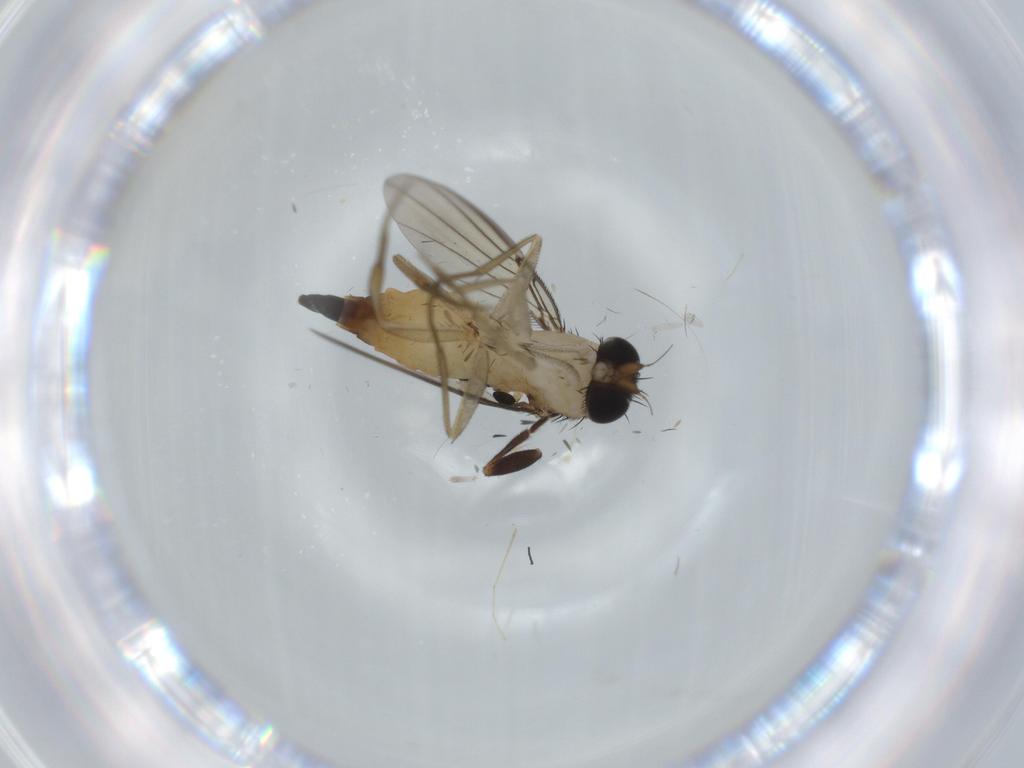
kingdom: Animalia
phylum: Arthropoda
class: Insecta
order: Diptera
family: Phoridae
